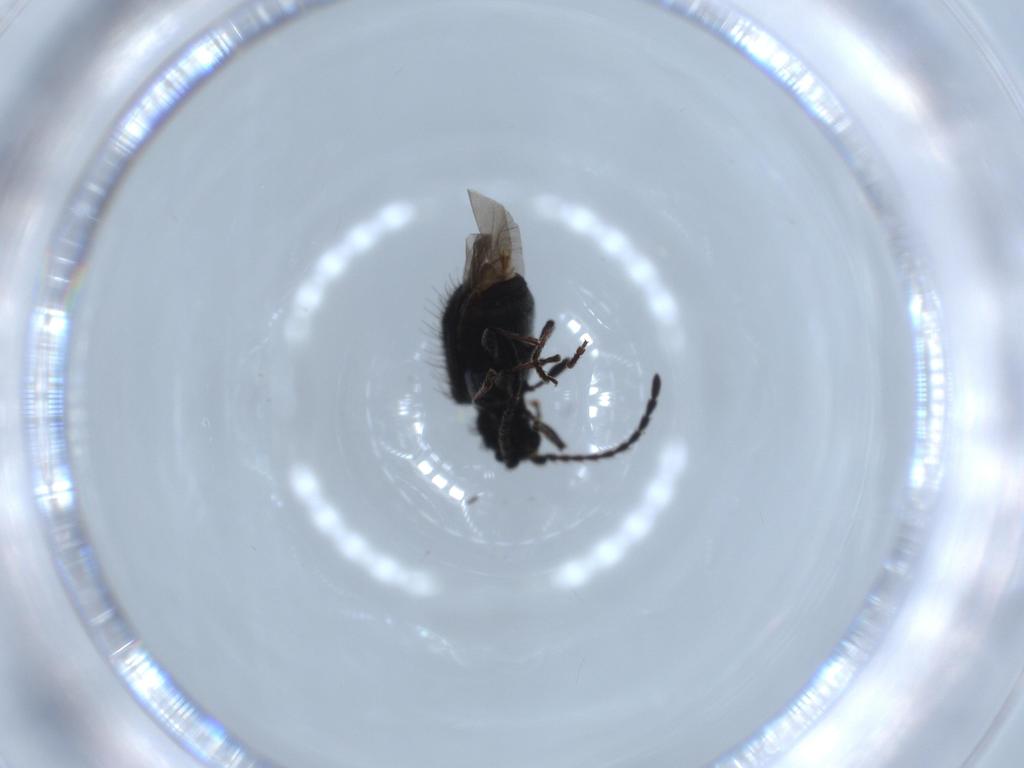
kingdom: Animalia
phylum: Arthropoda
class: Insecta
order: Coleoptera
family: Ptinidae
